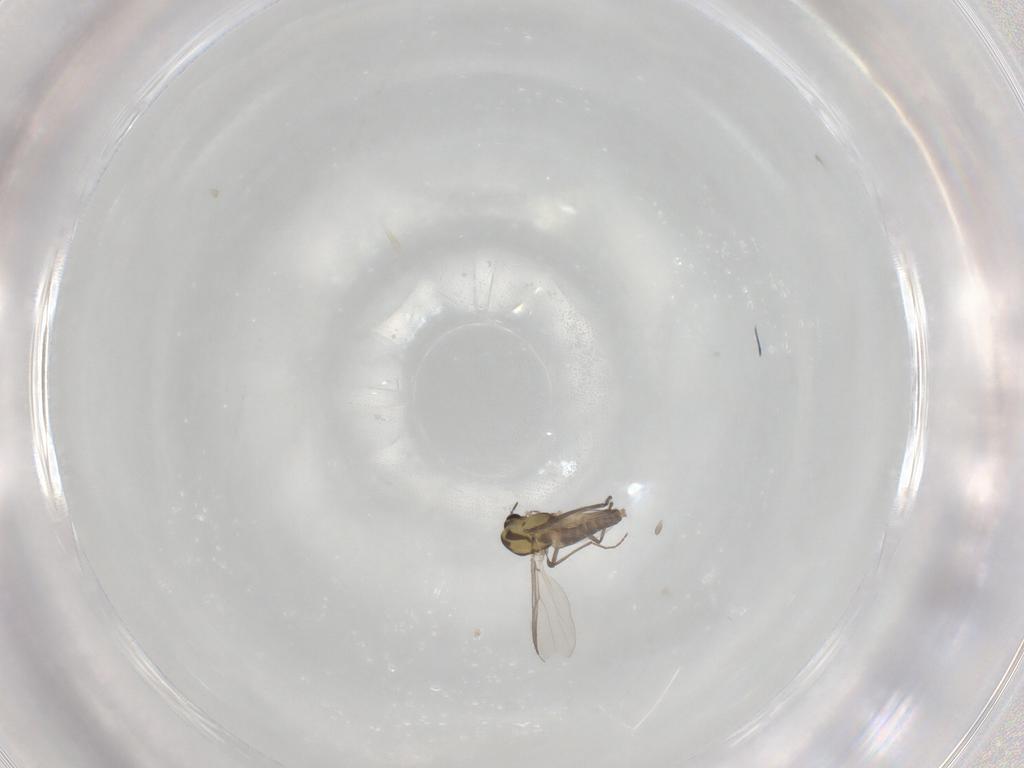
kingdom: Animalia
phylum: Arthropoda
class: Insecta
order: Diptera
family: Chironomidae
